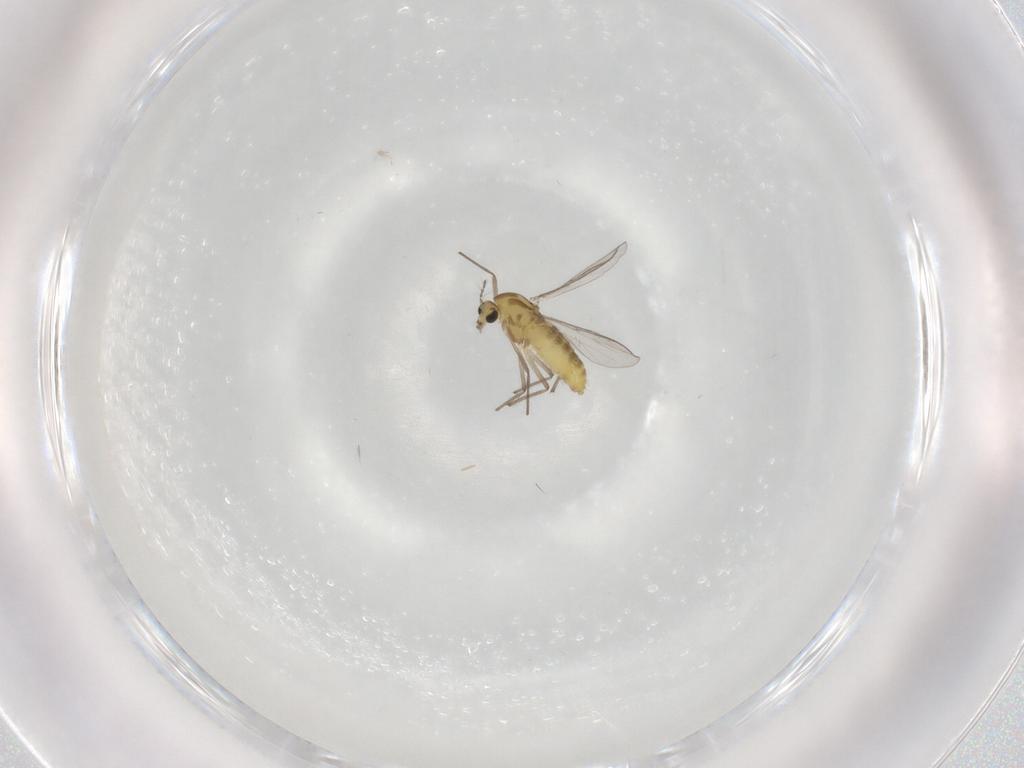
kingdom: Animalia
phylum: Arthropoda
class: Insecta
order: Diptera
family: Chironomidae
